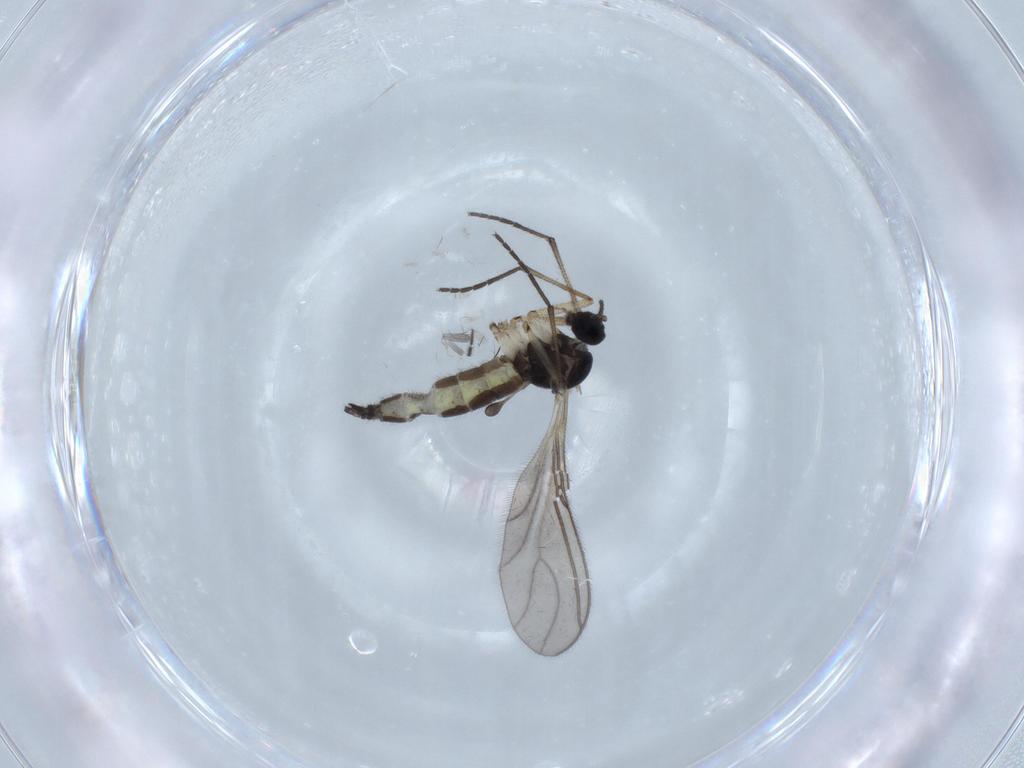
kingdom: Animalia
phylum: Arthropoda
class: Insecta
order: Diptera
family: Sciaridae
